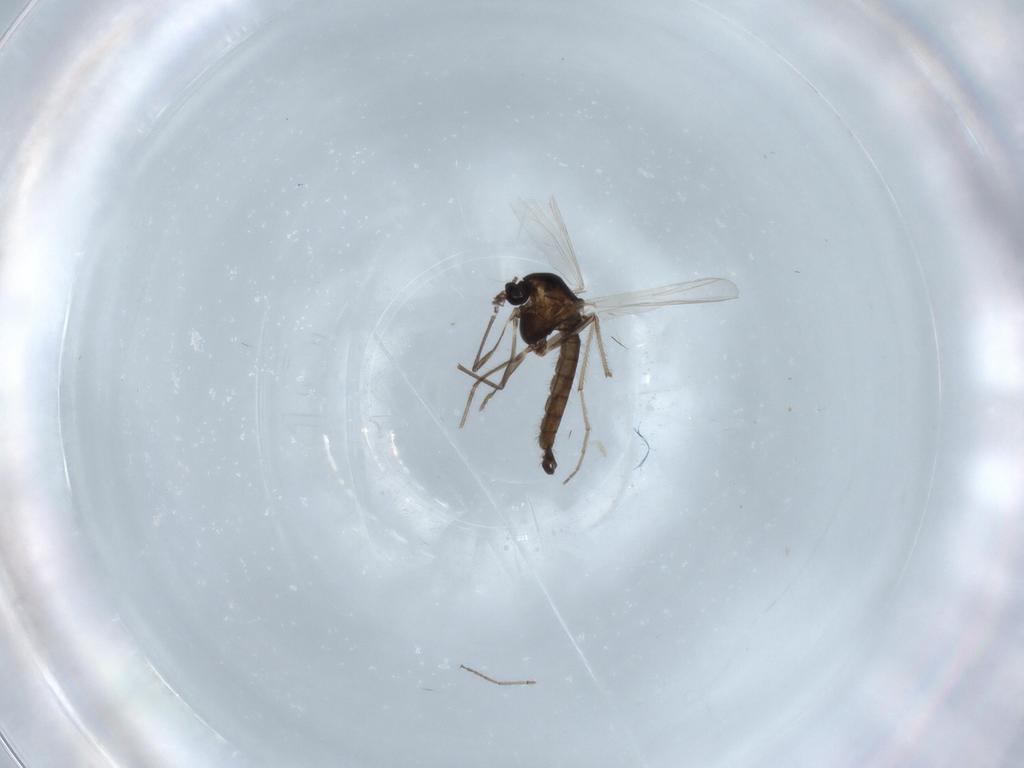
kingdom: Animalia
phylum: Arthropoda
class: Insecta
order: Diptera
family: Chironomidae
